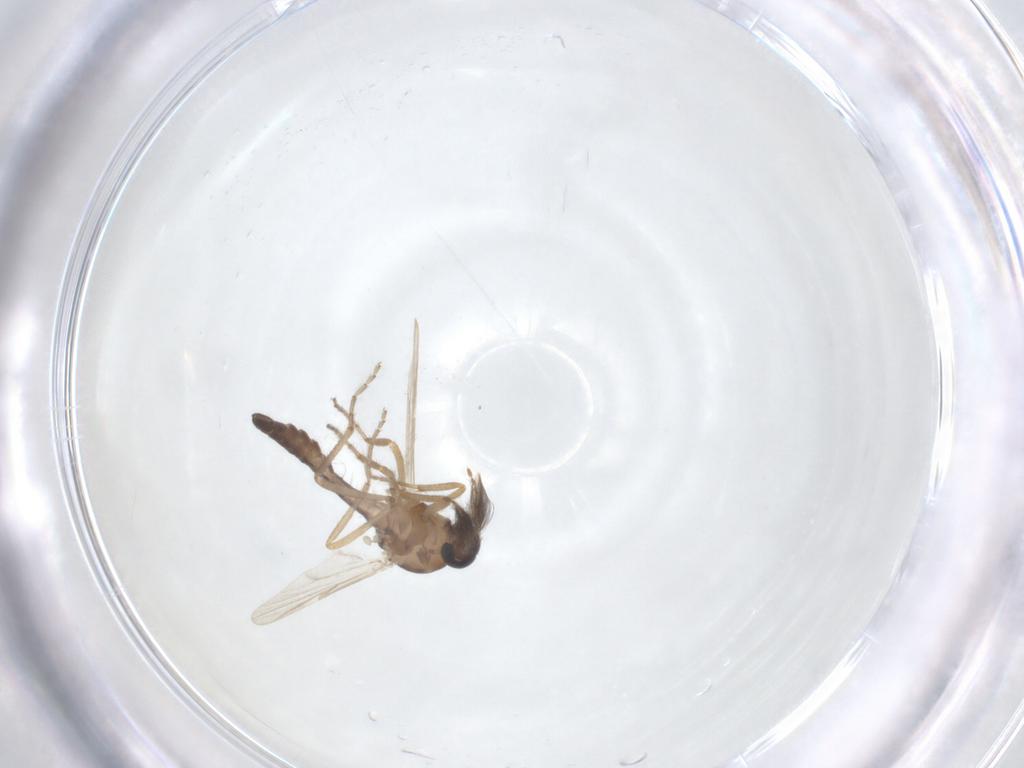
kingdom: Animalia
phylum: Arthropoda
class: Insecta
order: Diptera
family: Ceratopogonidae
